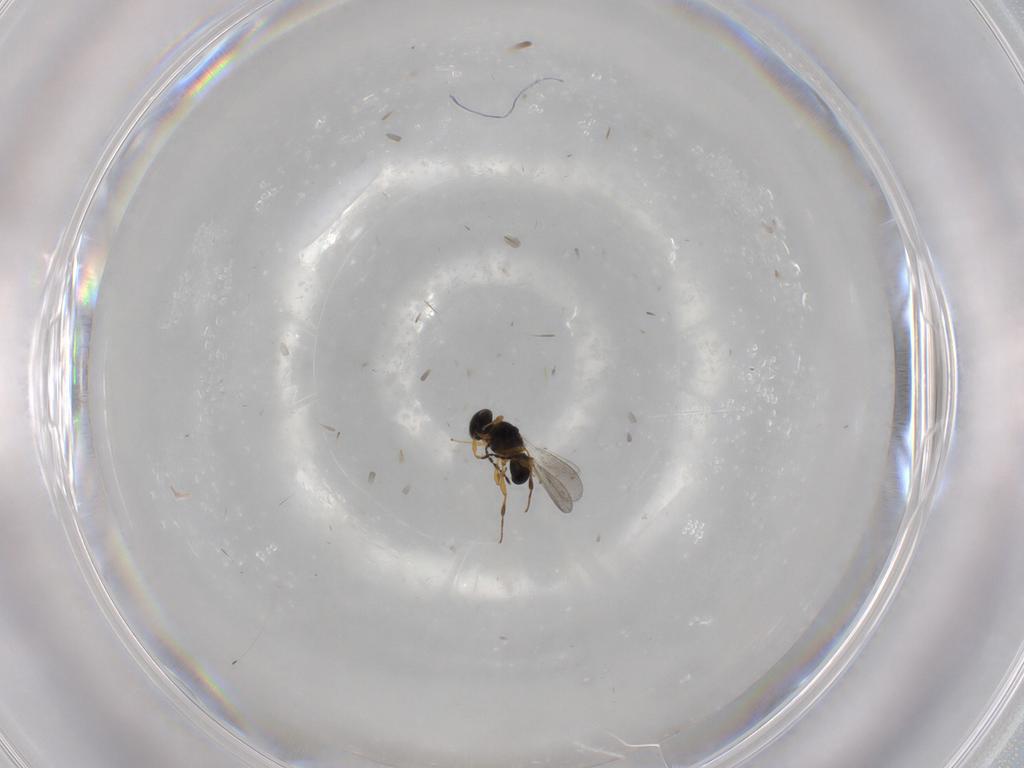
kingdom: Animalia
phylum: Arthropoda
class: Insecta
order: Hymenoptera
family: Platygastridae
